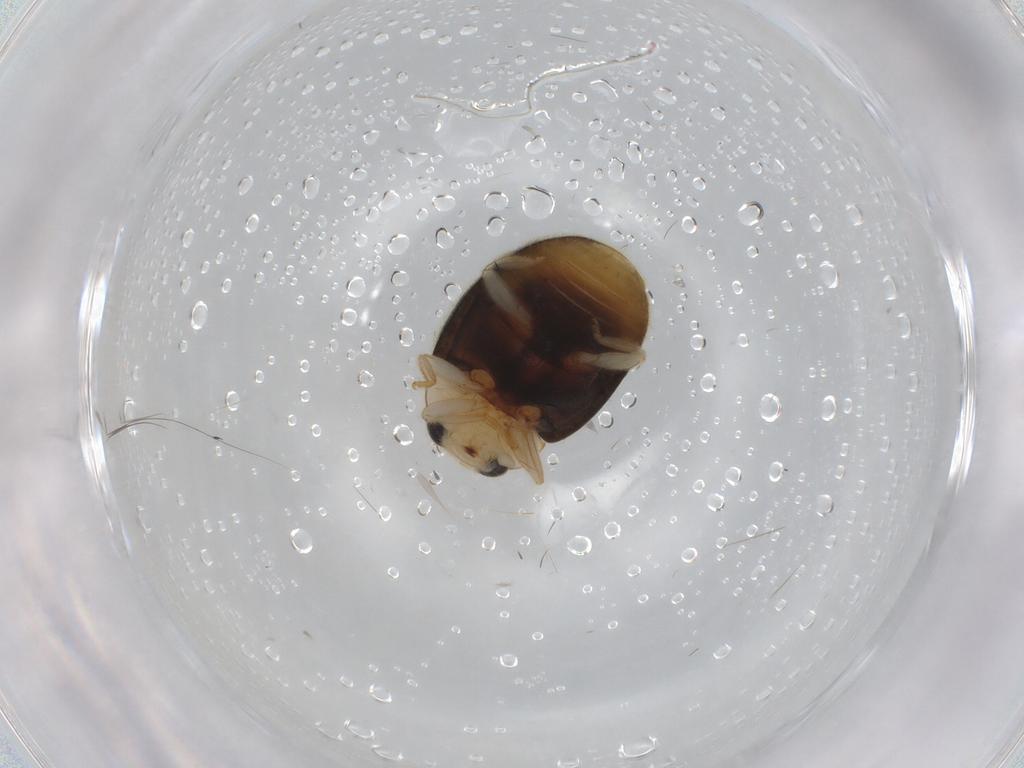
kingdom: Animalia
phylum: Arthropoda
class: Insecta
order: Coleoptera
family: Coccinellidae
